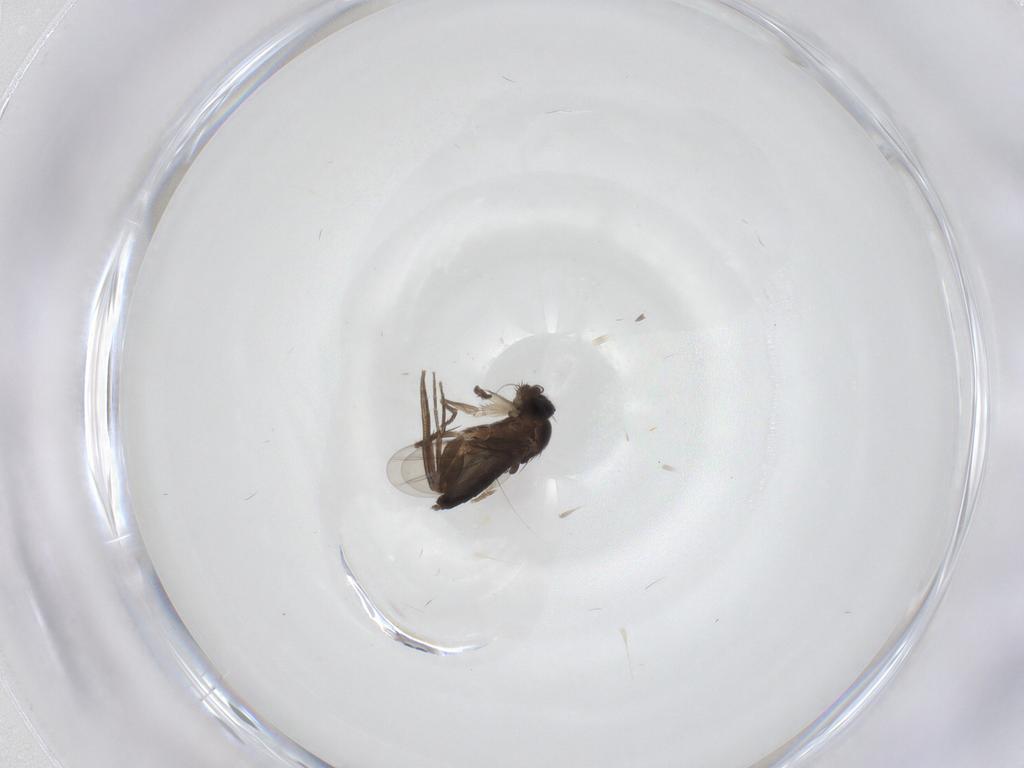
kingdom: Animalia
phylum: Arthropoda
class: Insecta
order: Diptera
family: Phoridae
